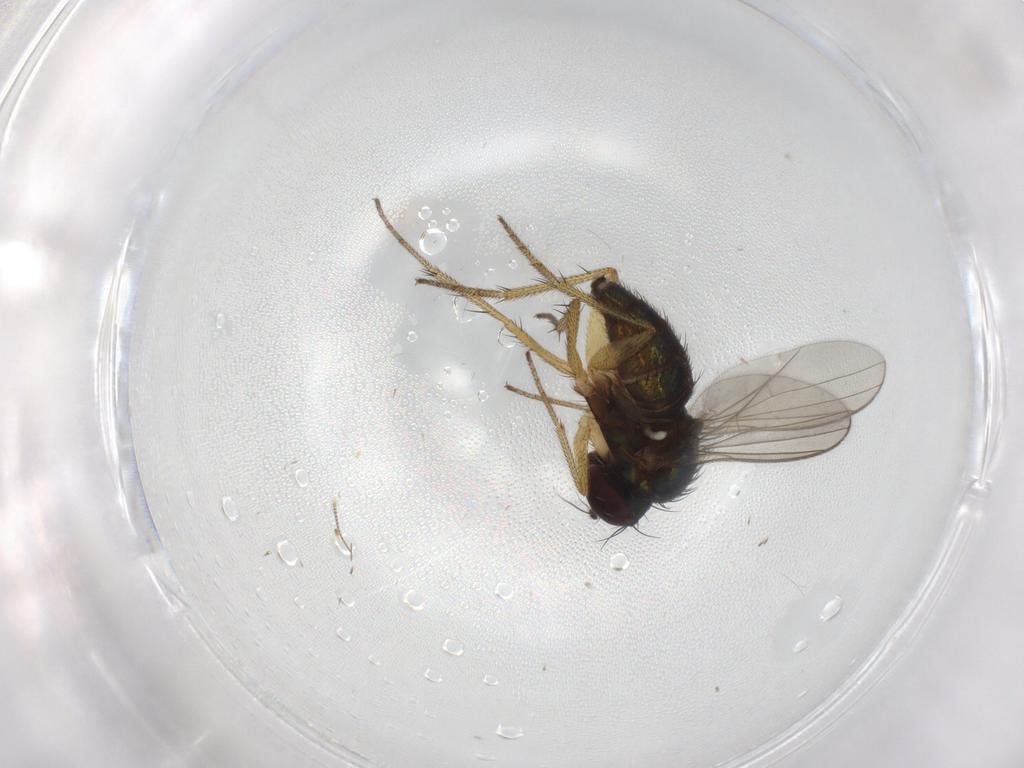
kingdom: Animalia
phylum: Arthropoda
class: Insecta
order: Diptera
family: Dolichopodidae
